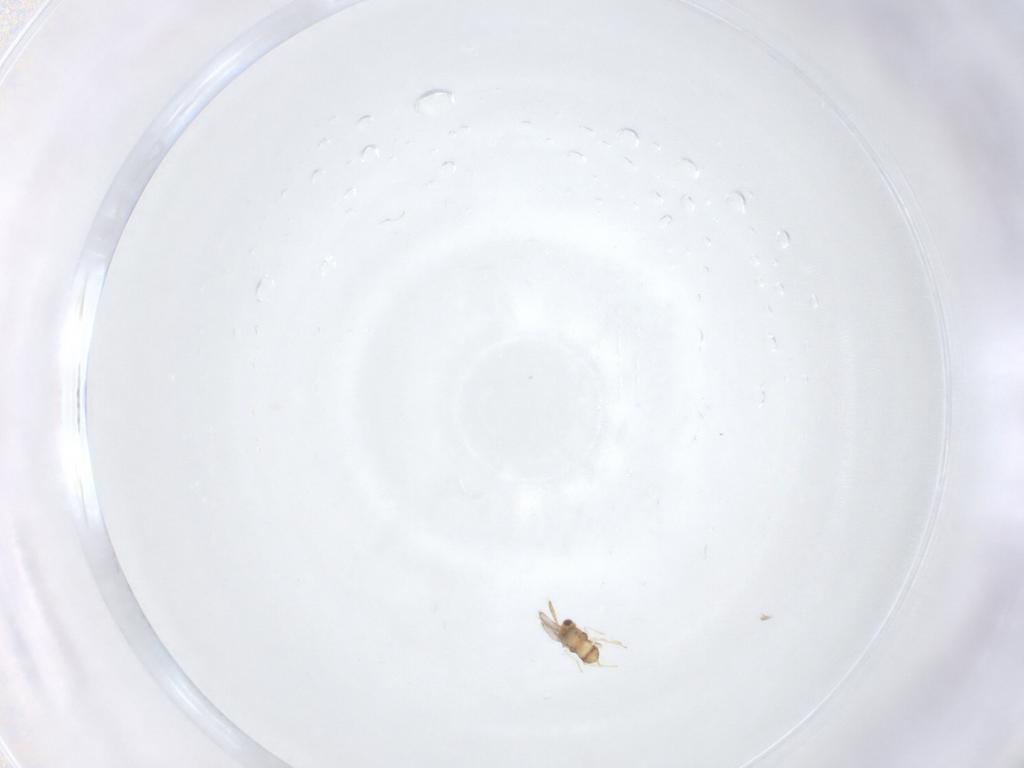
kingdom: Animalia
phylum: Arthropoda
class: Insecta
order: Hymenoptera
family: Aphelinidae
